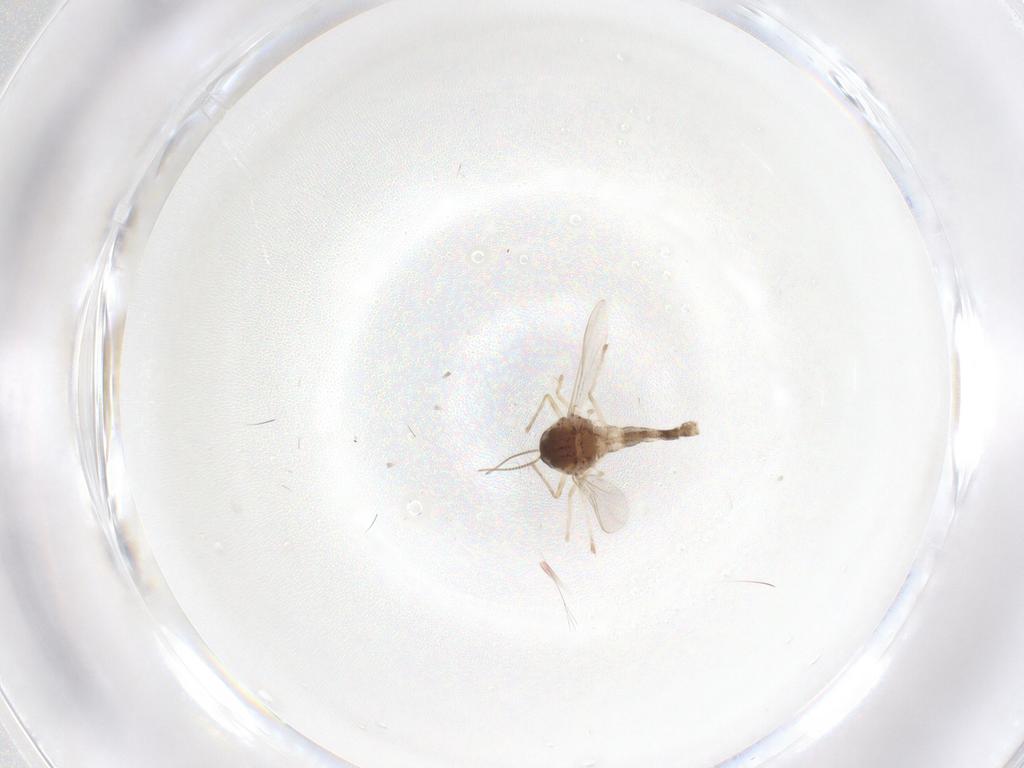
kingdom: Animalia
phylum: Arthropoda
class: Insecta
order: Diptera
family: Chironomidae
